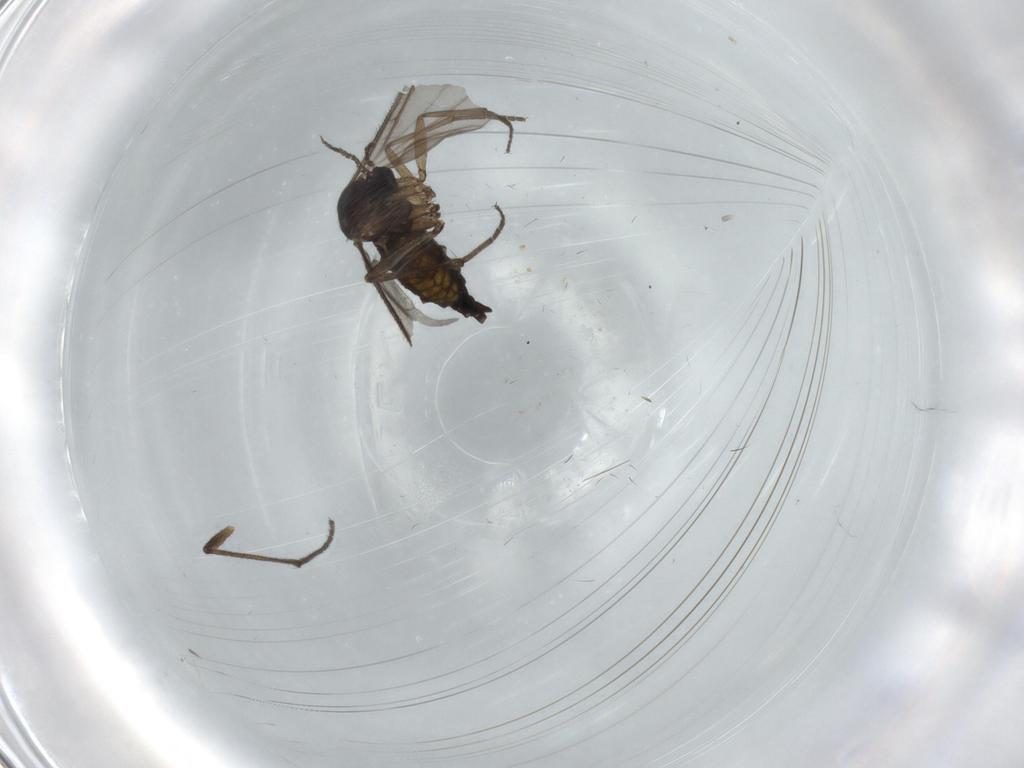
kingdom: Animalia
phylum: Arthropoda
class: Insecta
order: Diptera
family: Sciaridae
